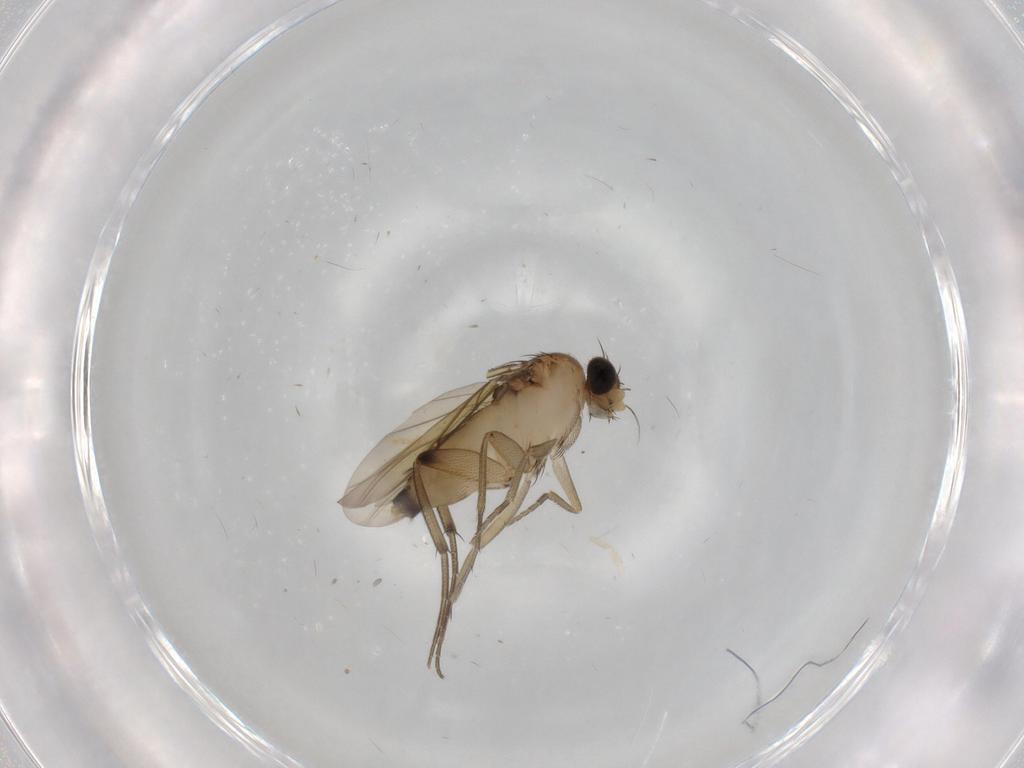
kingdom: Animalia
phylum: Arthropoda
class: Insecta
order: Diptera
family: Phoridae
